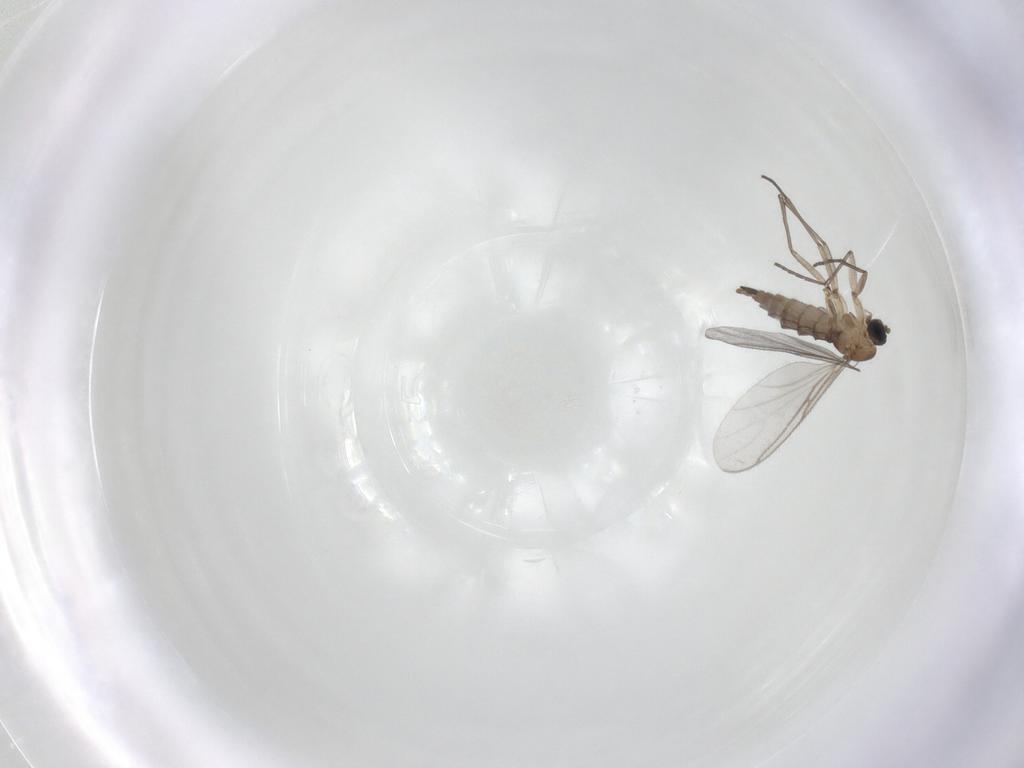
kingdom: Animalia
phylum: Arthropoda
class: Insecta
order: Diptera
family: Sciaridae
